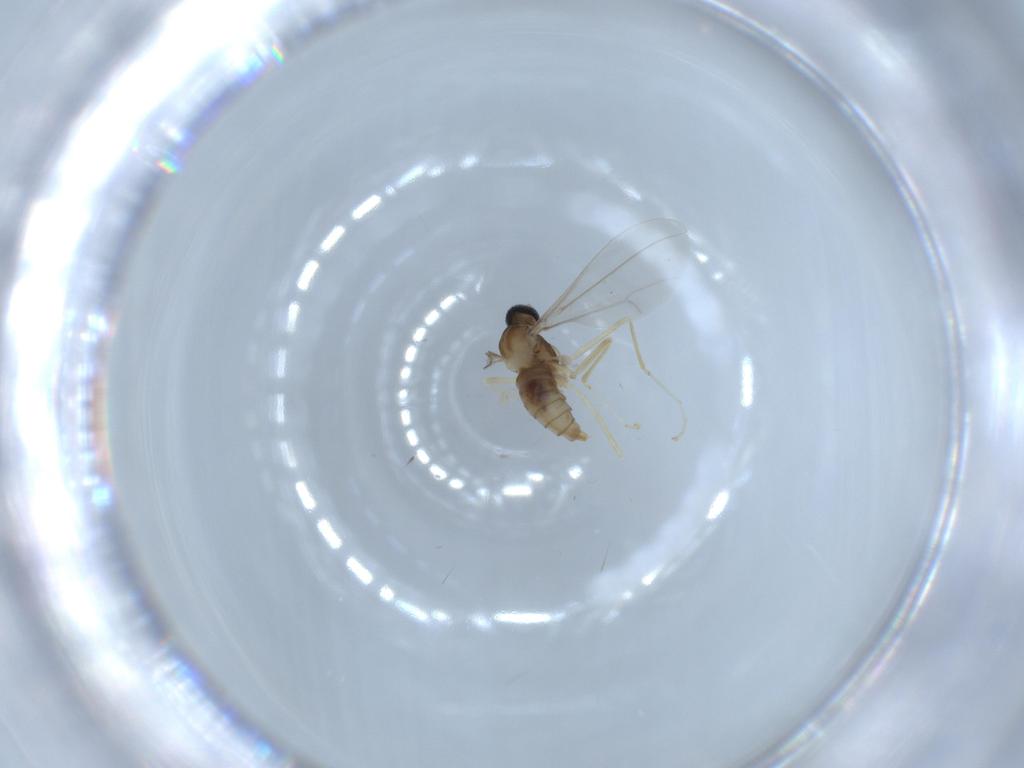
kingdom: Animalia
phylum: Arthropoda
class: Insecta
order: Diptera
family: Cecidomyiidae
